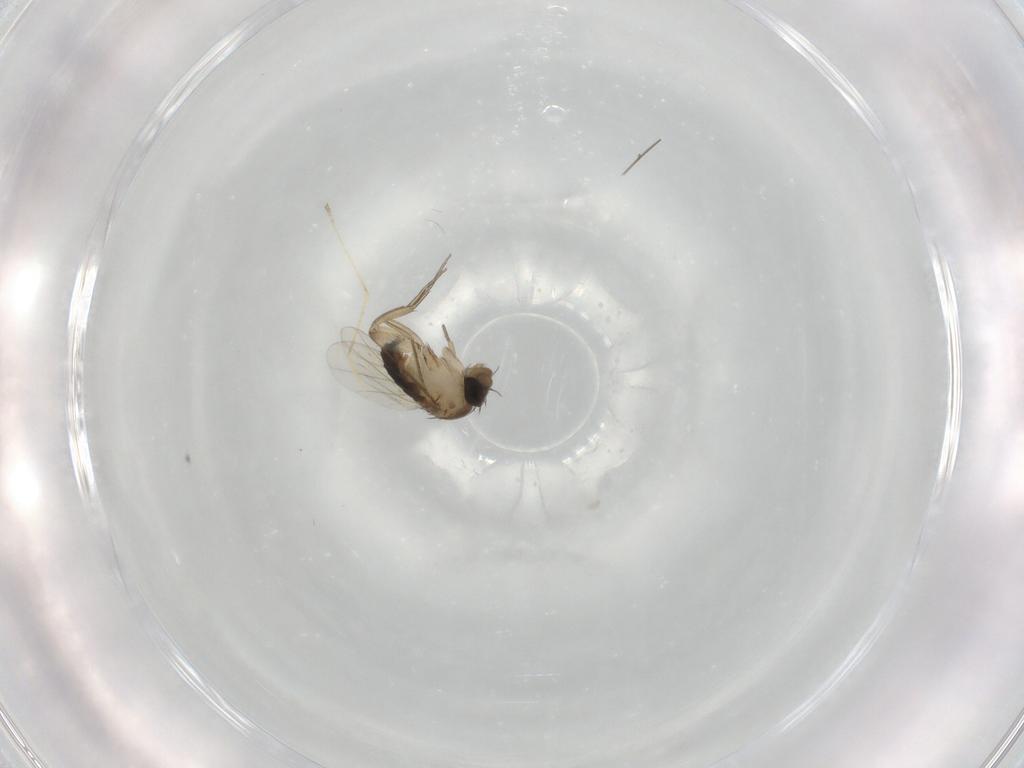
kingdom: Animalia
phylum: Arthropoda
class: Insecta
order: Diptera
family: Phoridae
